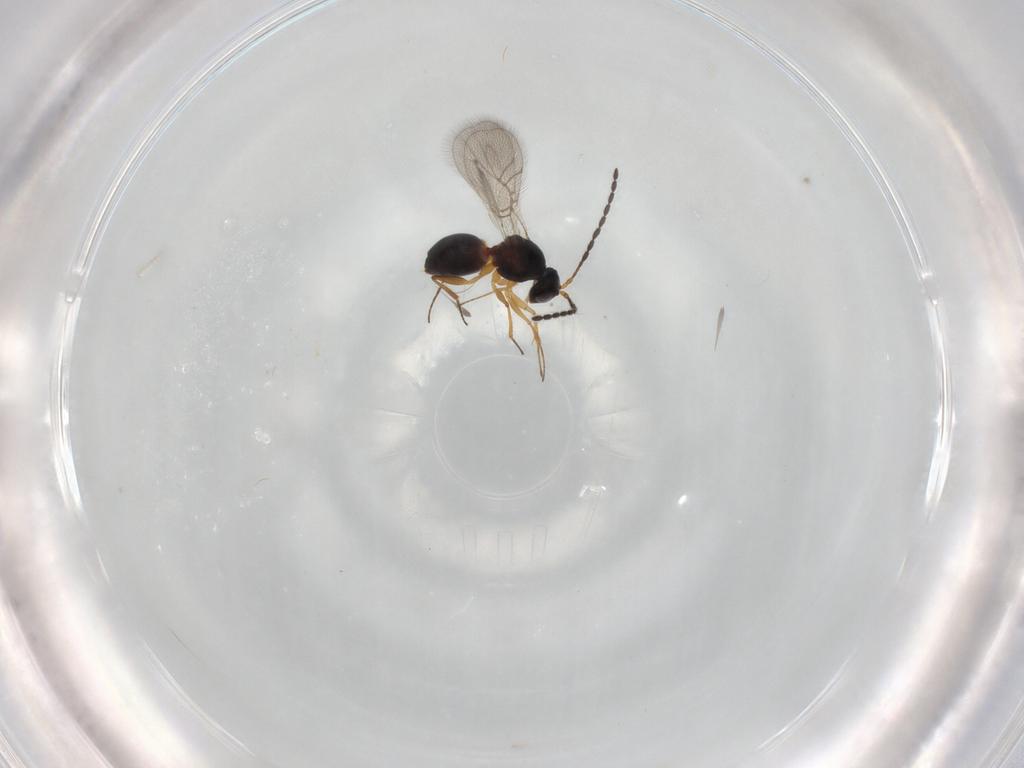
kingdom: Animalia
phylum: Arthropoda
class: Insecta
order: Hymenoptera
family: Figitidae
